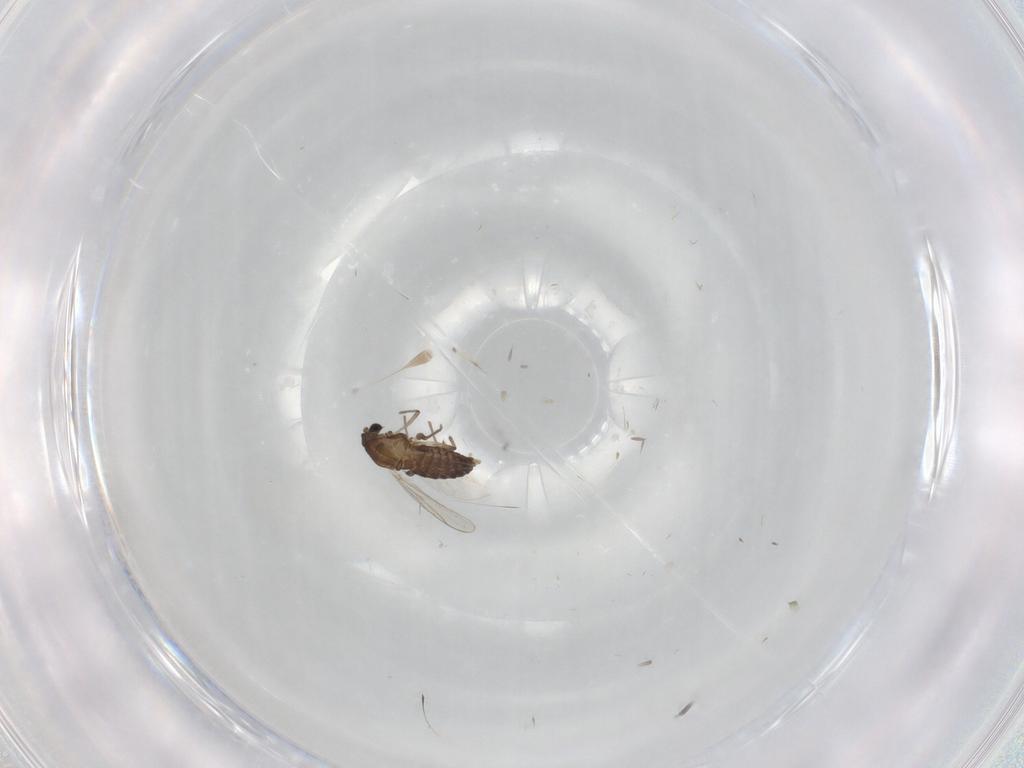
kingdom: Animalia
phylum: Arthropoda
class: Insecta
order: Diptera
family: Chironomidae
